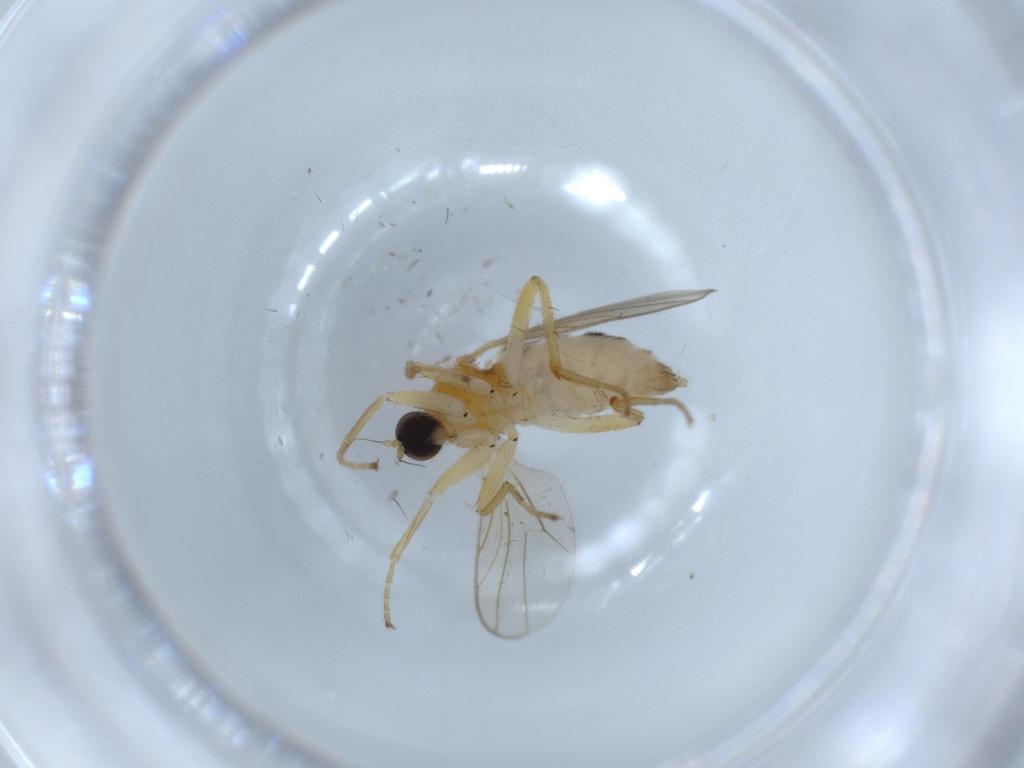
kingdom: Animalia
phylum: Arthropoda
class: Insecta
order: Diptera
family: Hybotidae
